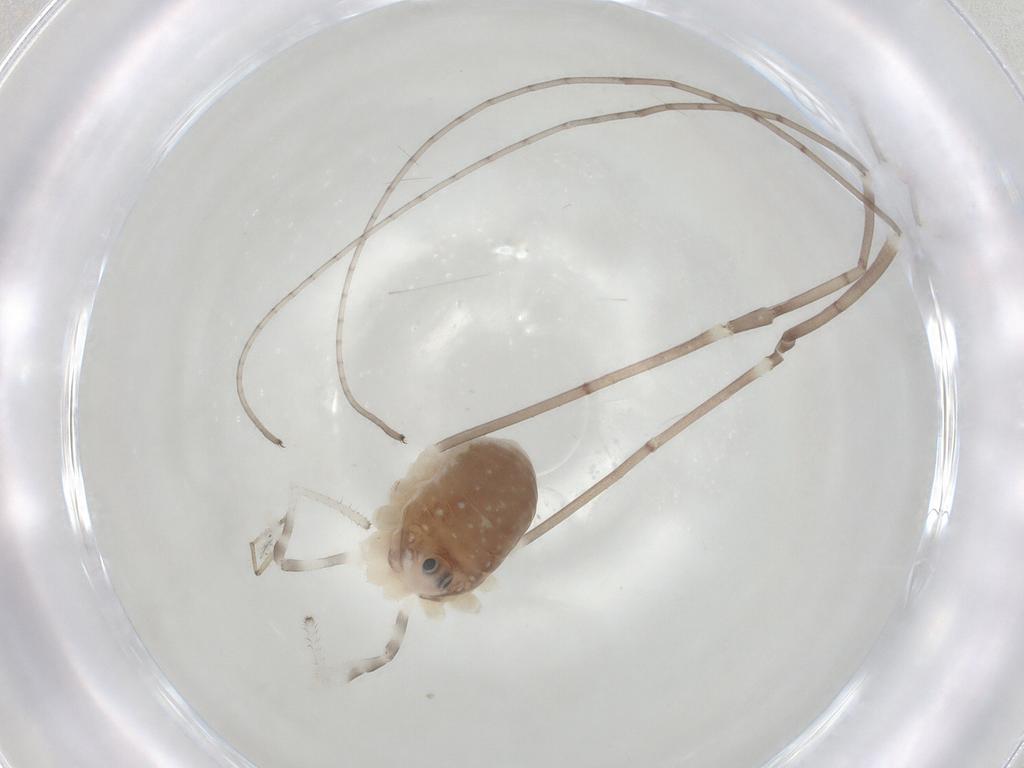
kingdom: Animalia
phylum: Arthropoda
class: Arachnida
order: Opiliones
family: Sclerosomatidae
